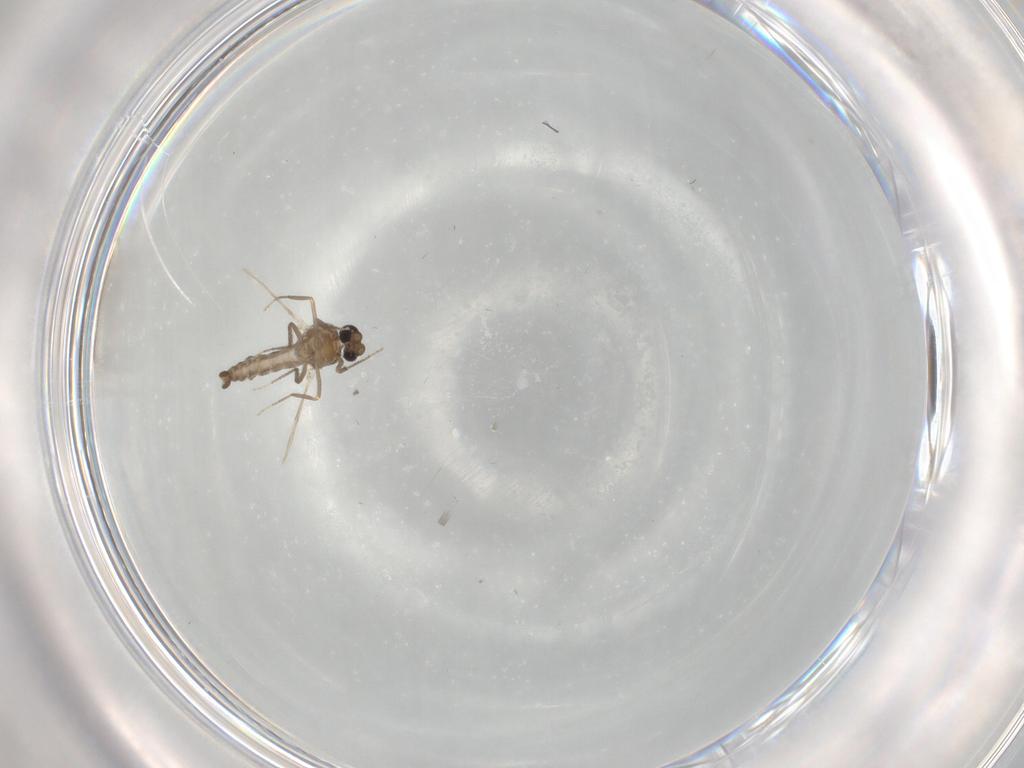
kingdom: Animalia
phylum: Arthropoda
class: Insecta
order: Diptera
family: Ceratopogonidae
